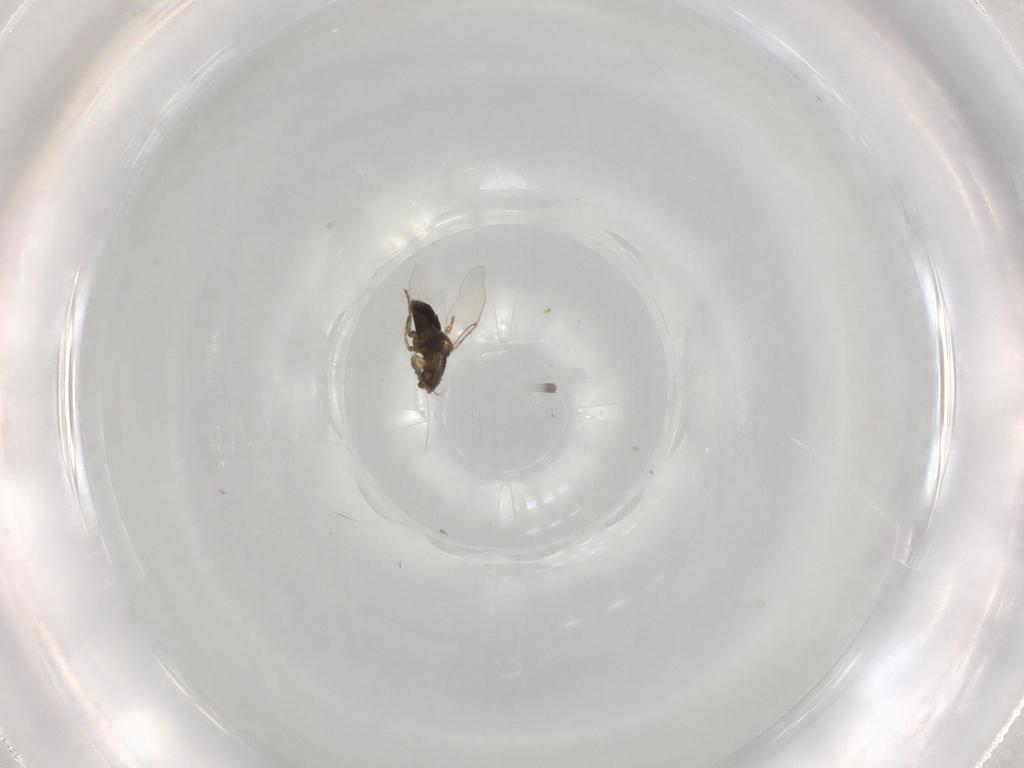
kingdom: Animalia
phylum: Arthropoda
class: Insecta
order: Diptera
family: Phoridae
